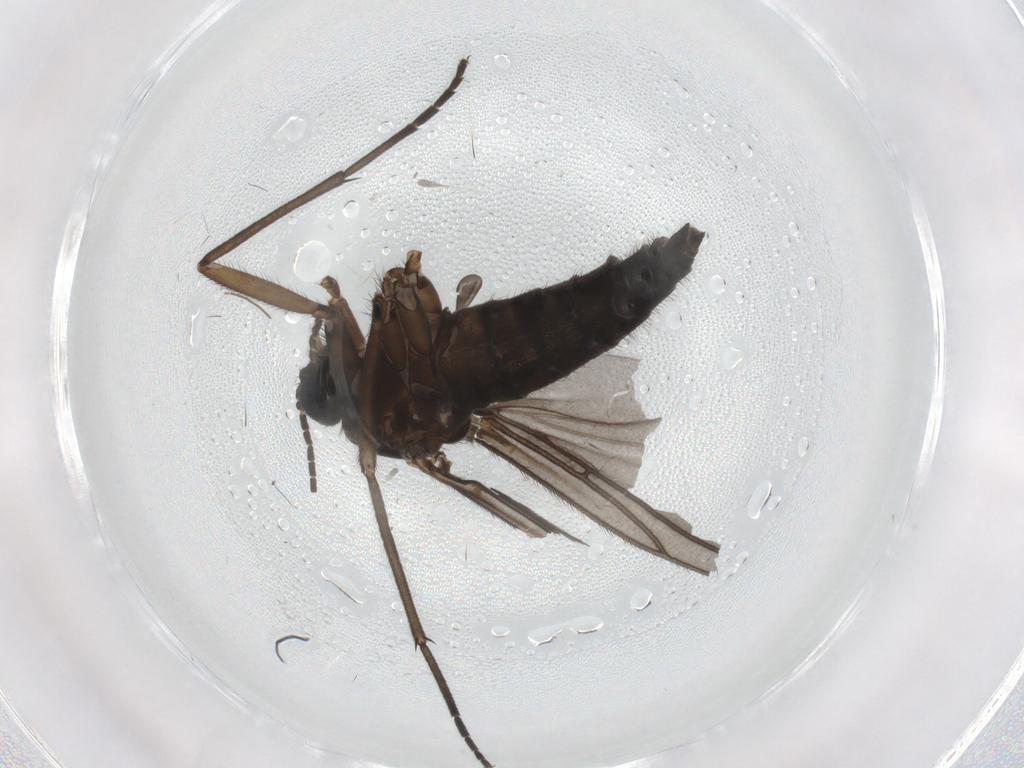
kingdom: Animalia
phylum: Arthropoda
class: Insecta
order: Diptera
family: Sciaridae
